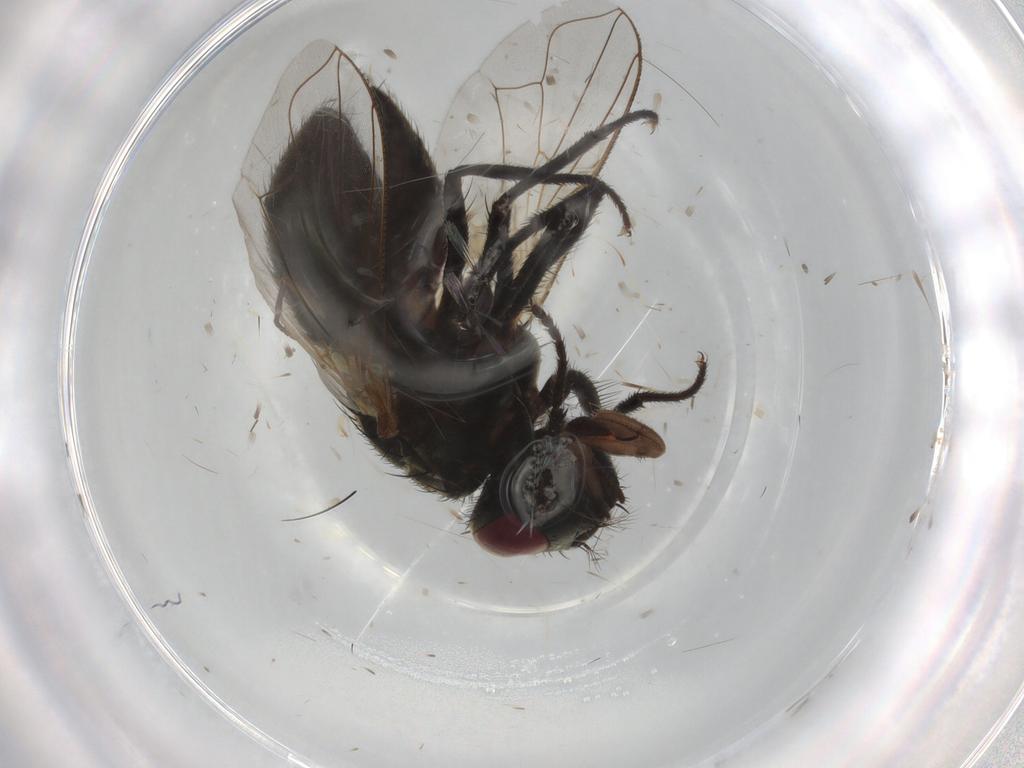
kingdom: Animalia
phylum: Arthropoda
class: Insecta
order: Diptera
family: Muscidae
